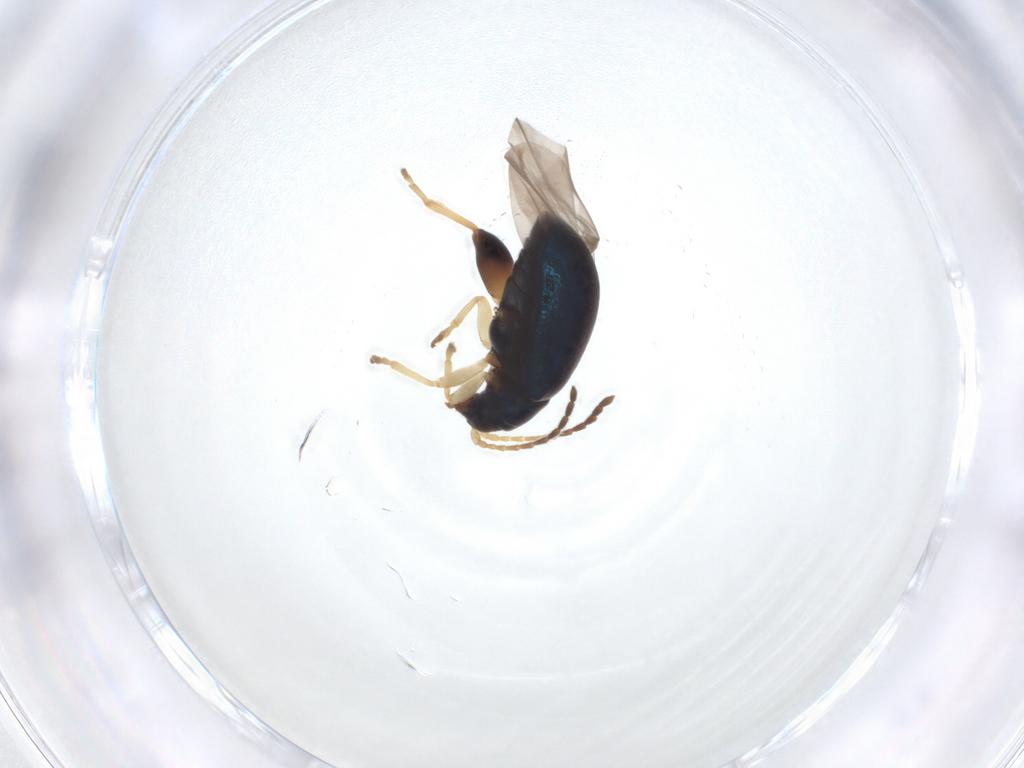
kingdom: Animalia
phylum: Arthropoda
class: Insecta
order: Coleoptera
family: Chrysomelidae
